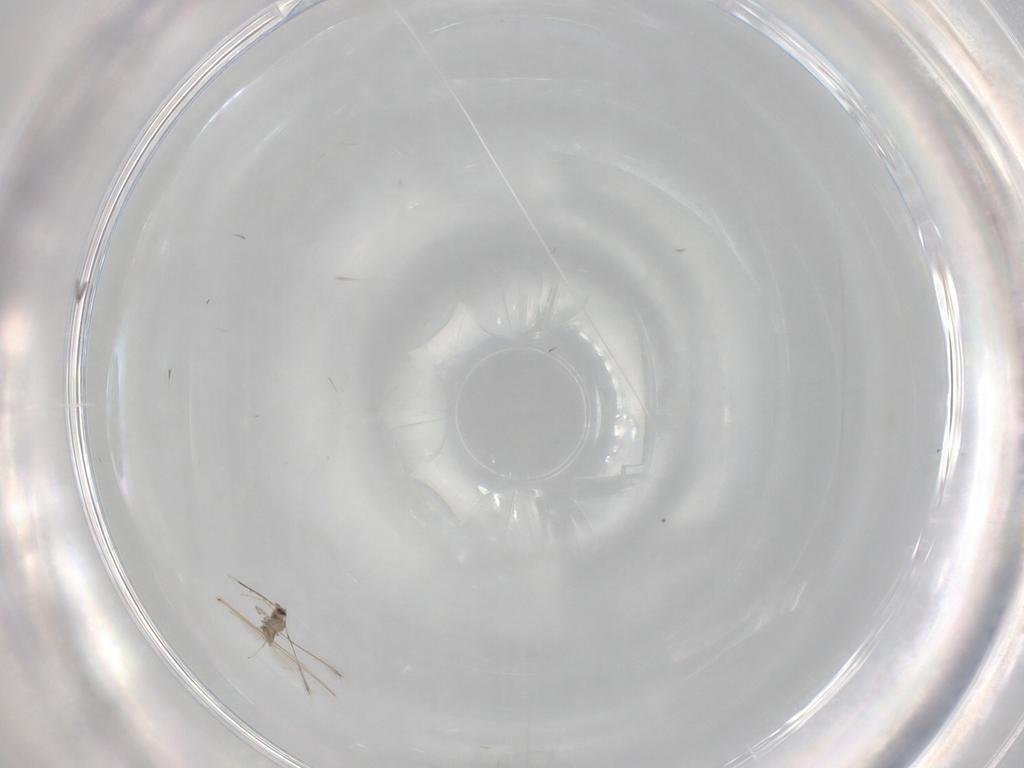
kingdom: Animalia
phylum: Arthropoda
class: Insecta
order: Hymenoptera
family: Mymaridae
